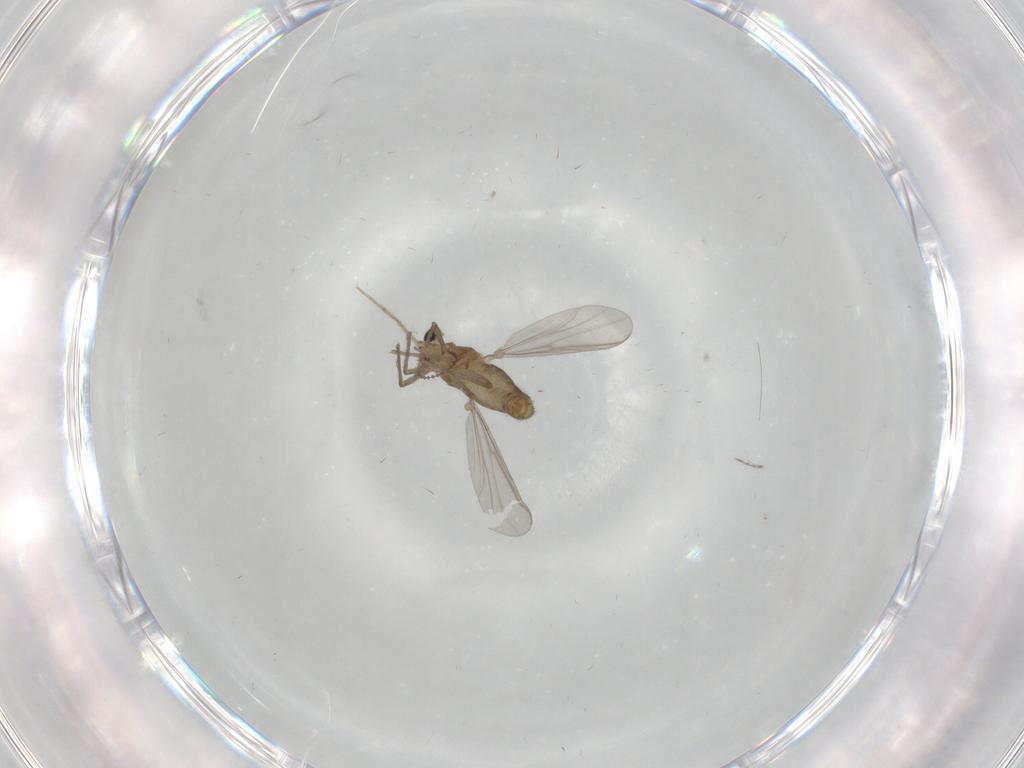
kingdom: Animalia
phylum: Arthropoda
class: Insecta
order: Diptera
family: Chironomidae
